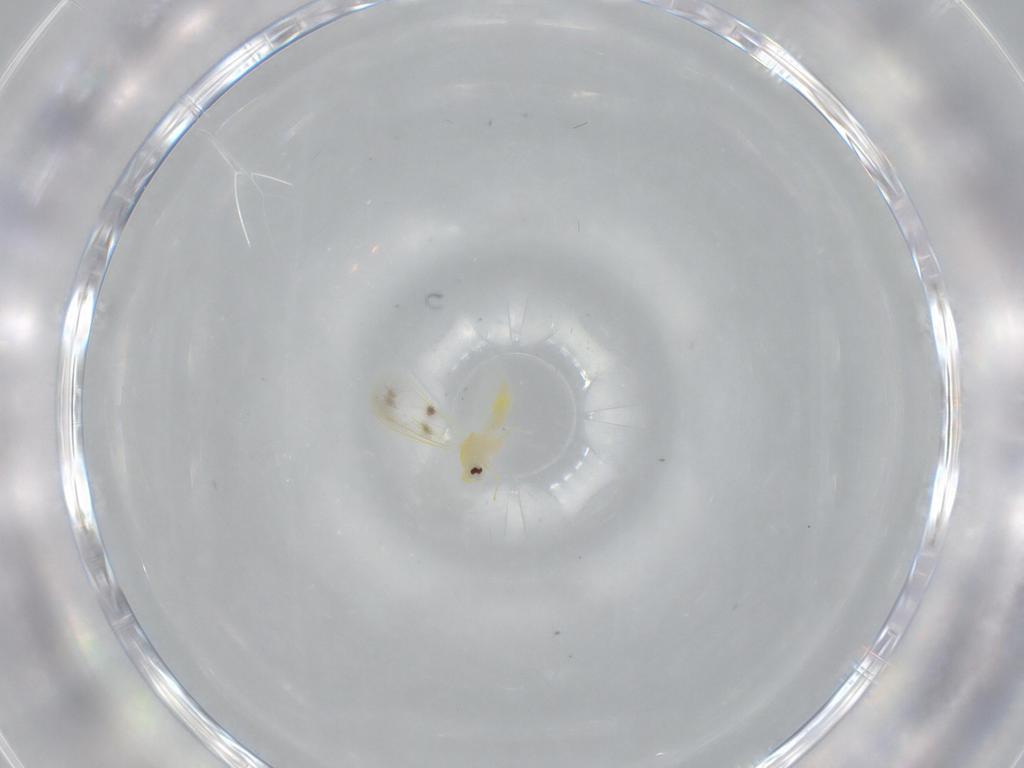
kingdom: Animalia
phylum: Arthropoda
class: Insecta
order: Hemiptera
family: Aleyrodidae
